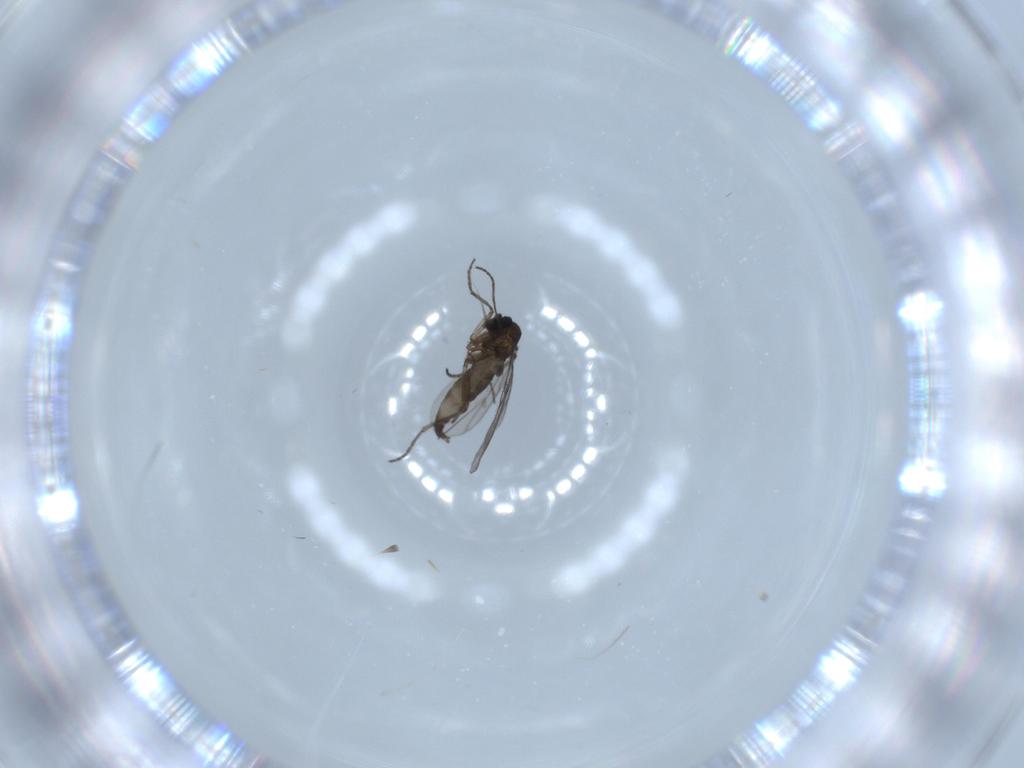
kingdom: Animalia
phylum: Arthropoda
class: Insecta
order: Diptera
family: Cecidomyiidae
